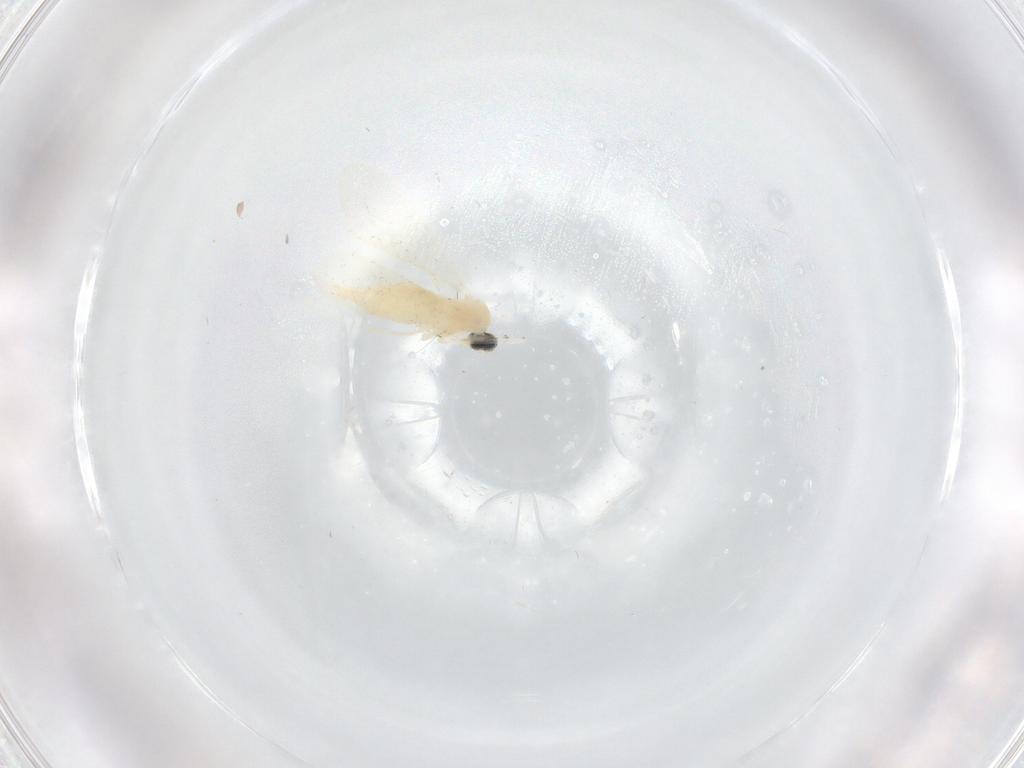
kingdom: Animalia
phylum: Arthropoda
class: Insecta
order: Diptera
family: Cecidomyiidae
